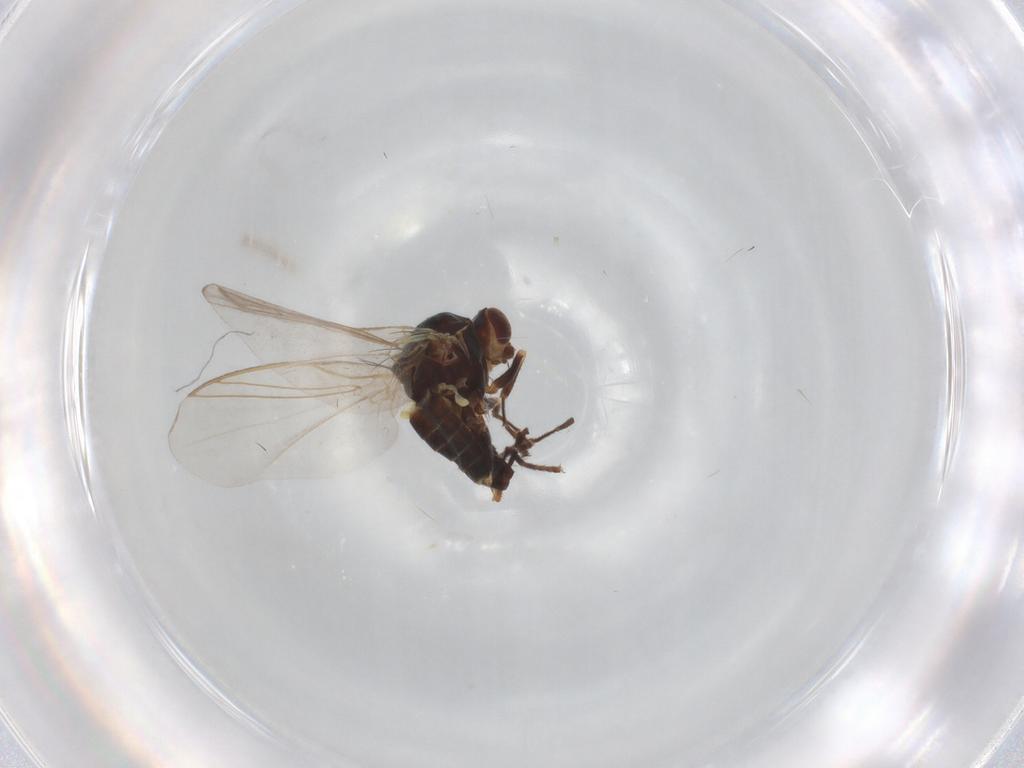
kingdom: Animalia
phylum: Arthropoda
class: Insecta
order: Diptera
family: Ceratopogonidae
